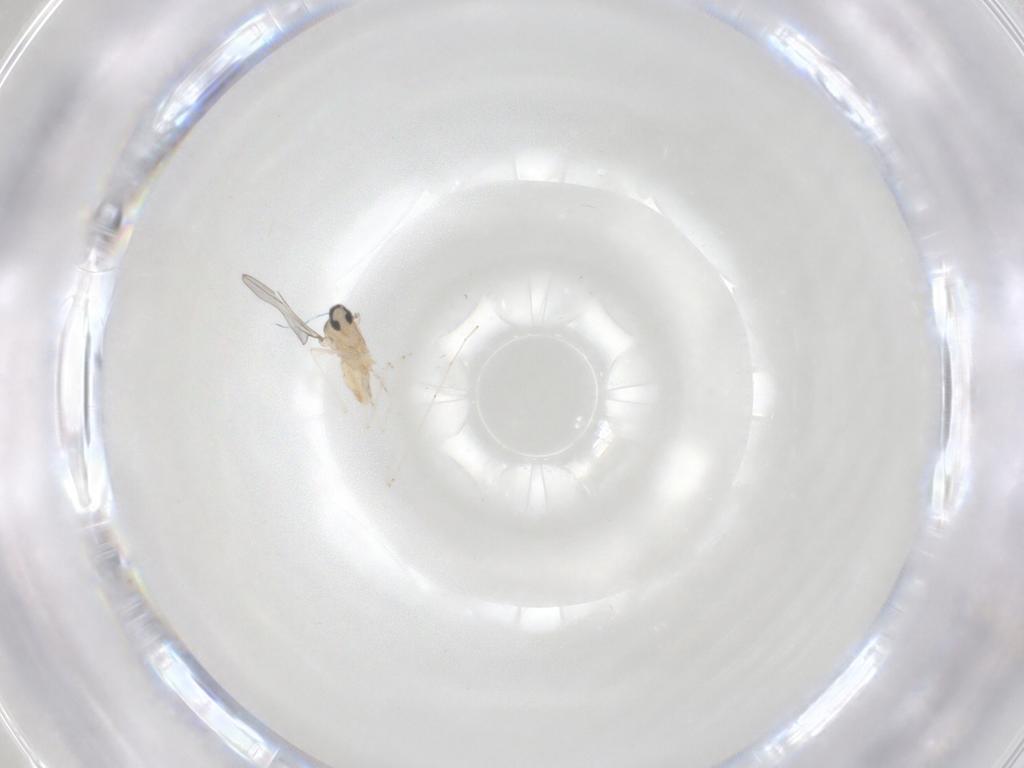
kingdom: Animalia
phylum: Arthropoda
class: Insecta
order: Diptera
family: Cecidomyiidae
